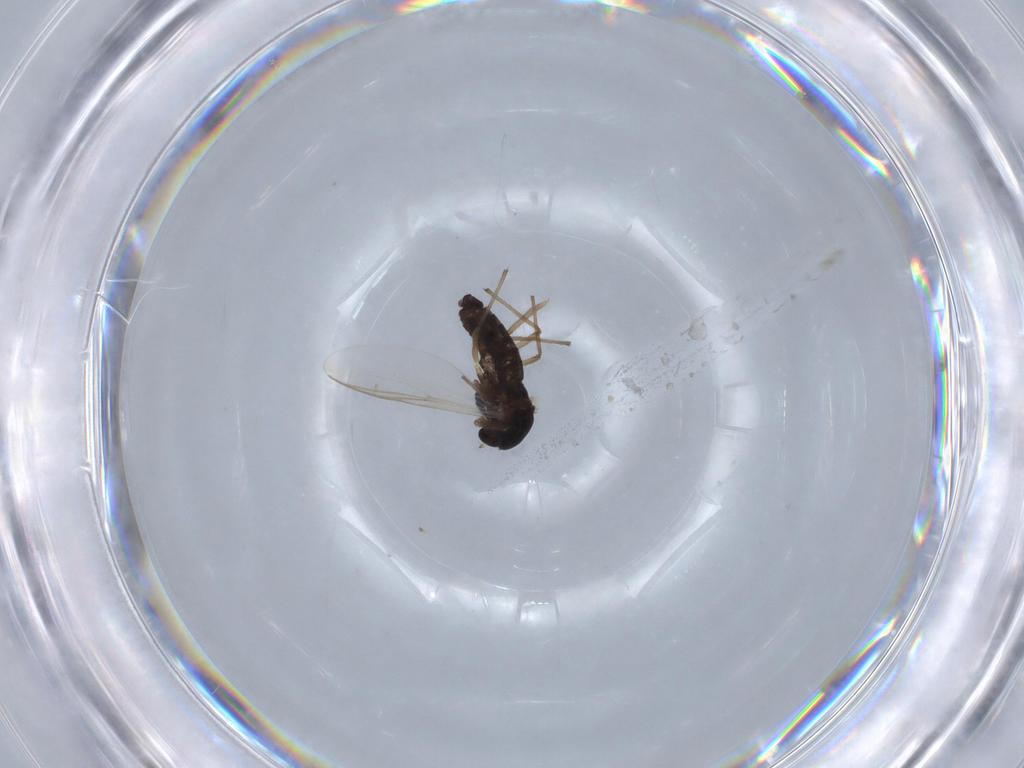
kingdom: Animalia
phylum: Arthropoda
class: Insecta
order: Diptera
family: Chironomidae
